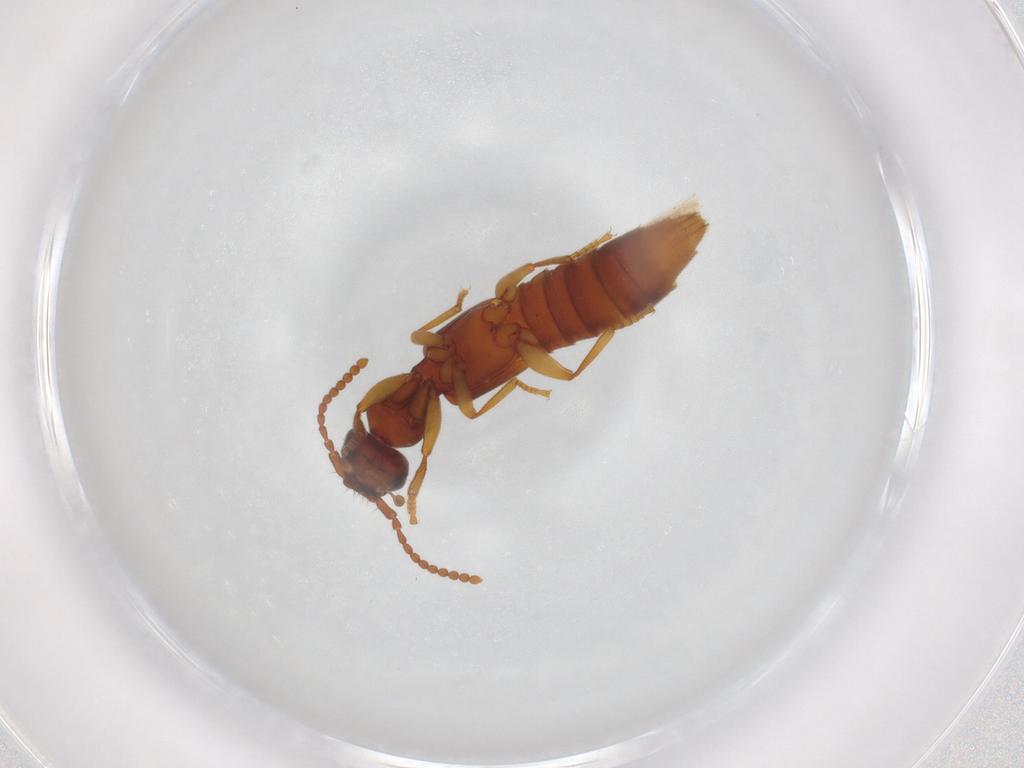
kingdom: Animalia
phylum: Arthropoda
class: Insecta
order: Coleoptera
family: Staphylinidae
